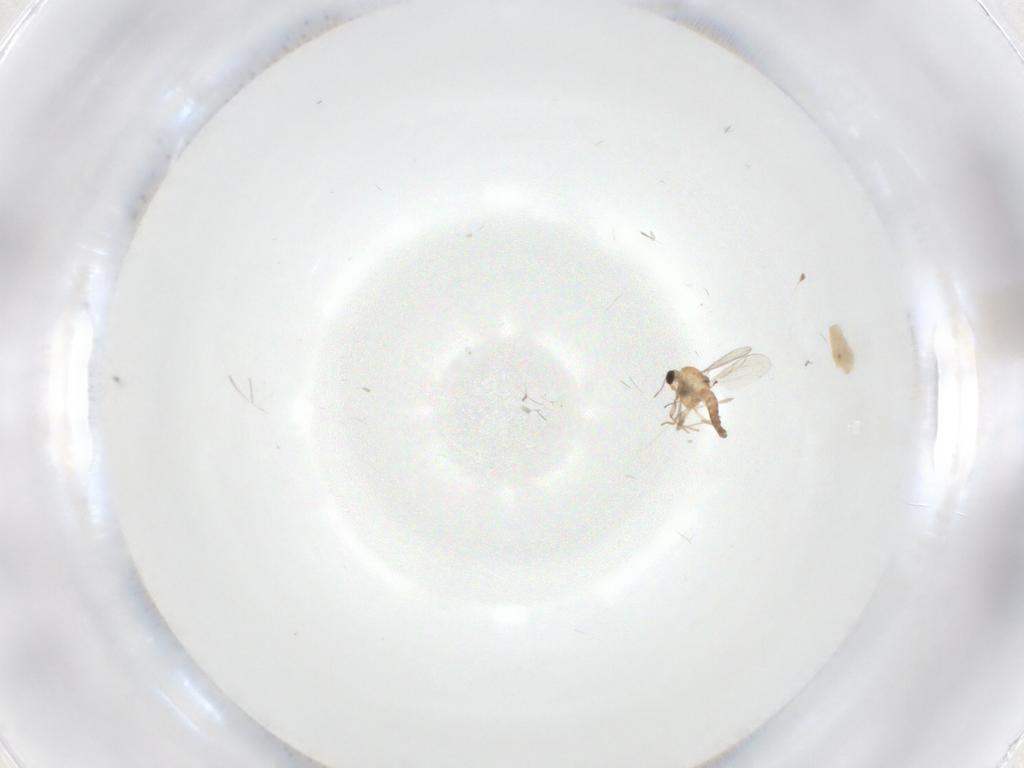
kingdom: Animalia
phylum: Arthropoda
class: Insecta
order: Diptera
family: Chironomidae
